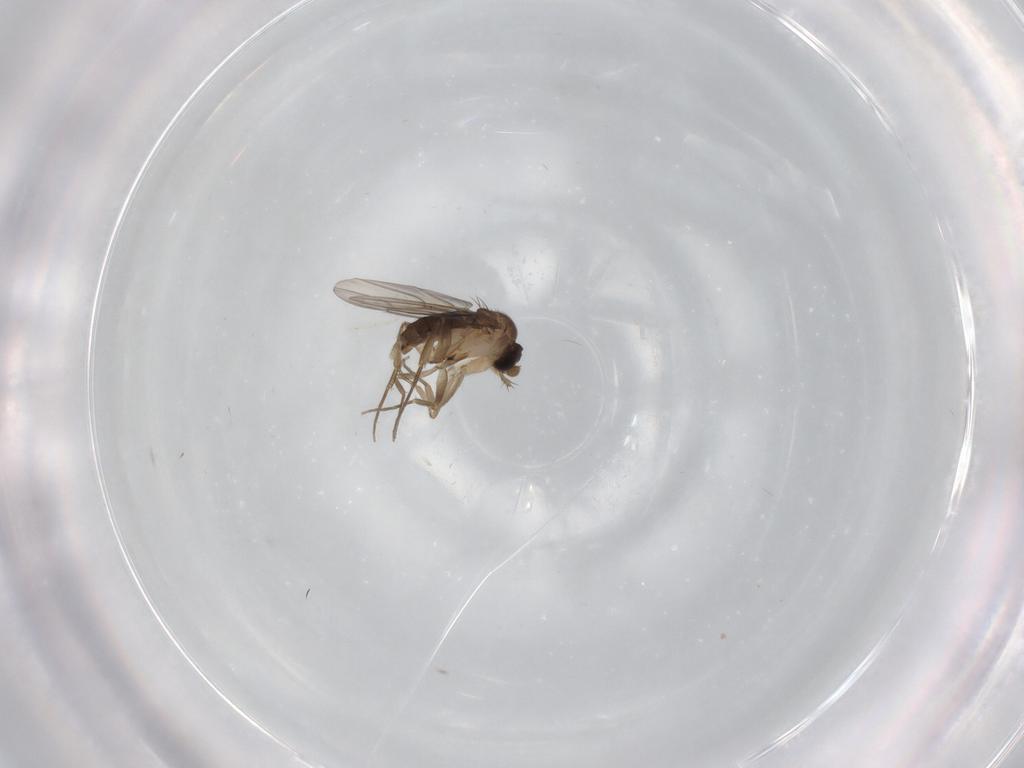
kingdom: Animalia
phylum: Arthropoda
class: Insecta
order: Diptera
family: Cecidomyiidae
